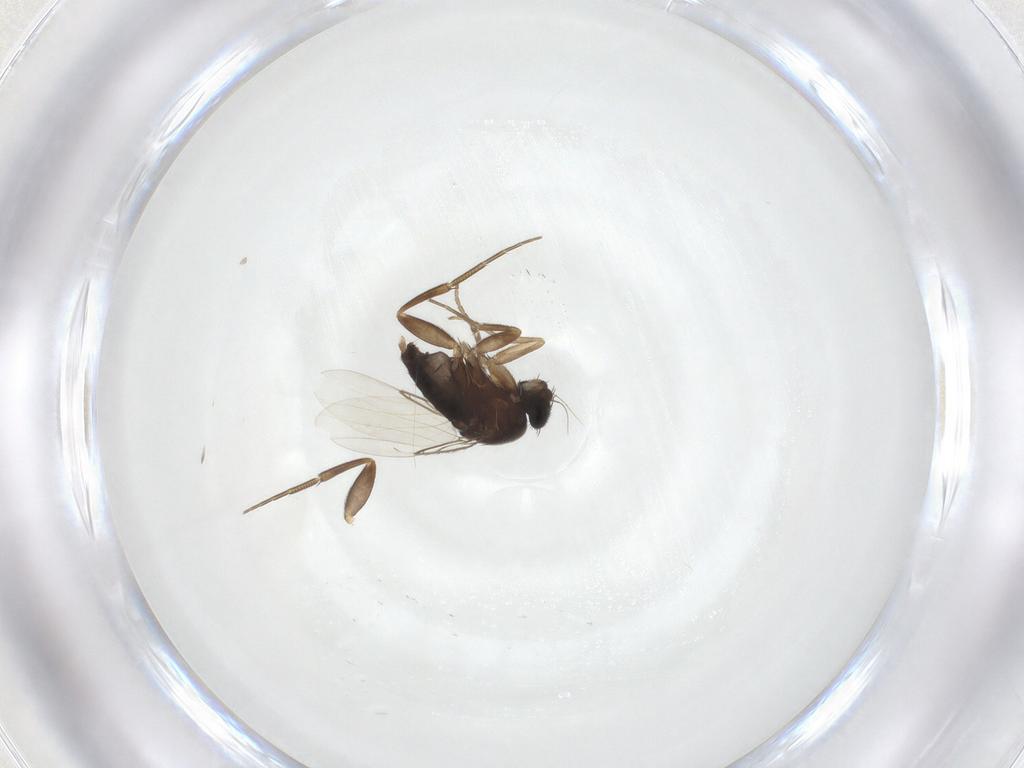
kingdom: Animalia
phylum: Arthropoda
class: Insecta
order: Diptera
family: Phoridae
